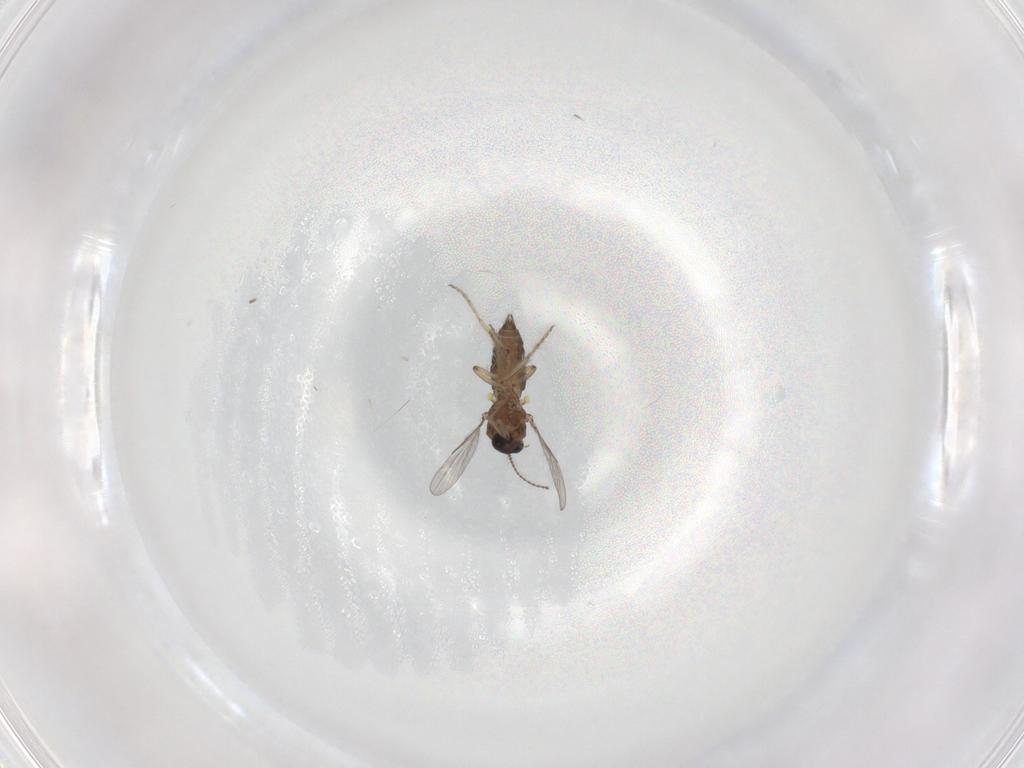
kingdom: Animalia
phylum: Arthropoda
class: Insecta
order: Diptera
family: Ceratopogonidae
